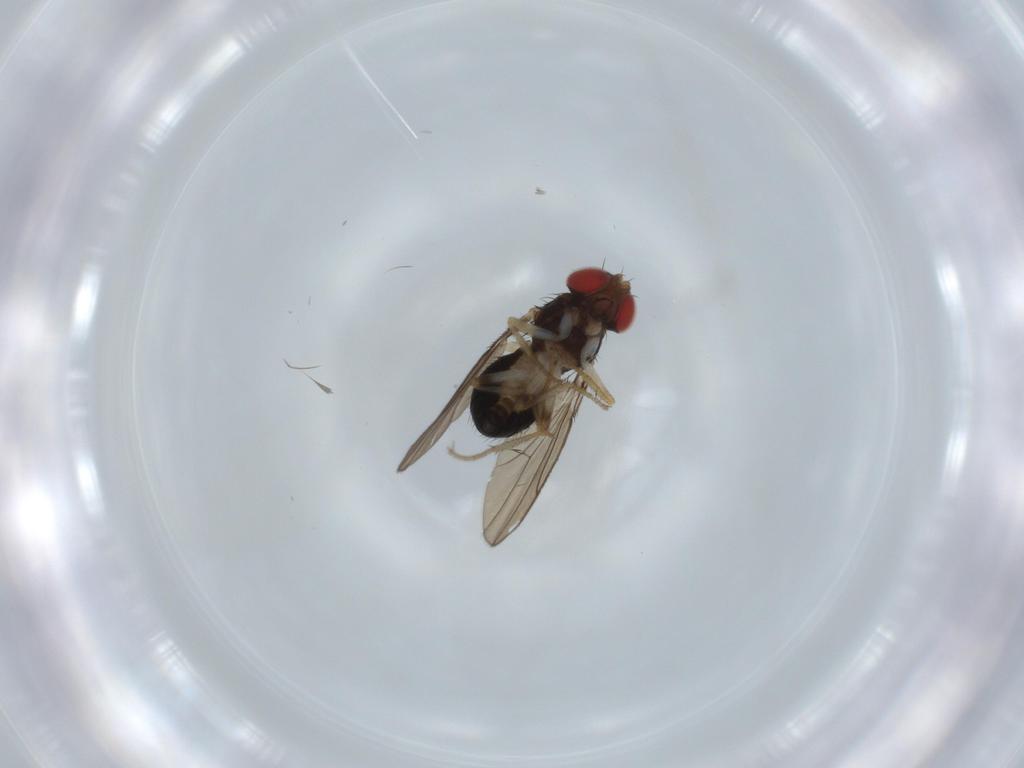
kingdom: Animalia
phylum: Arthropoda
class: Insecta
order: Diptera
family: Drosophilidae
